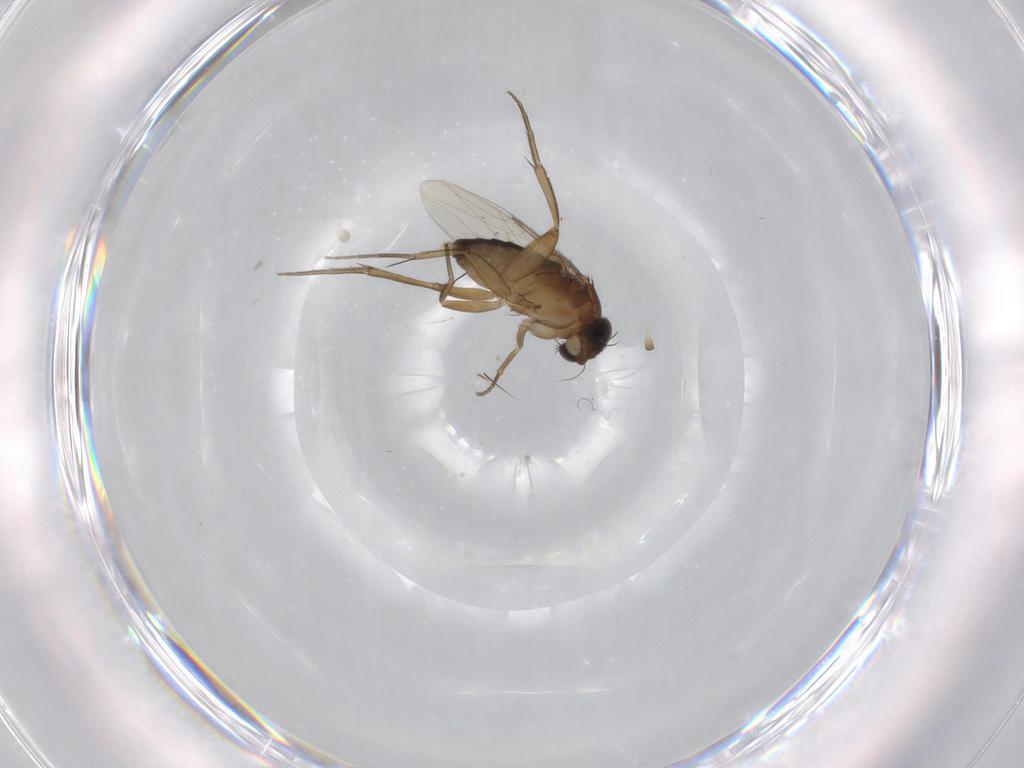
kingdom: Animalia
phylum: Arthropoda
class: Insecta
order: Diptera
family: Phoridae
